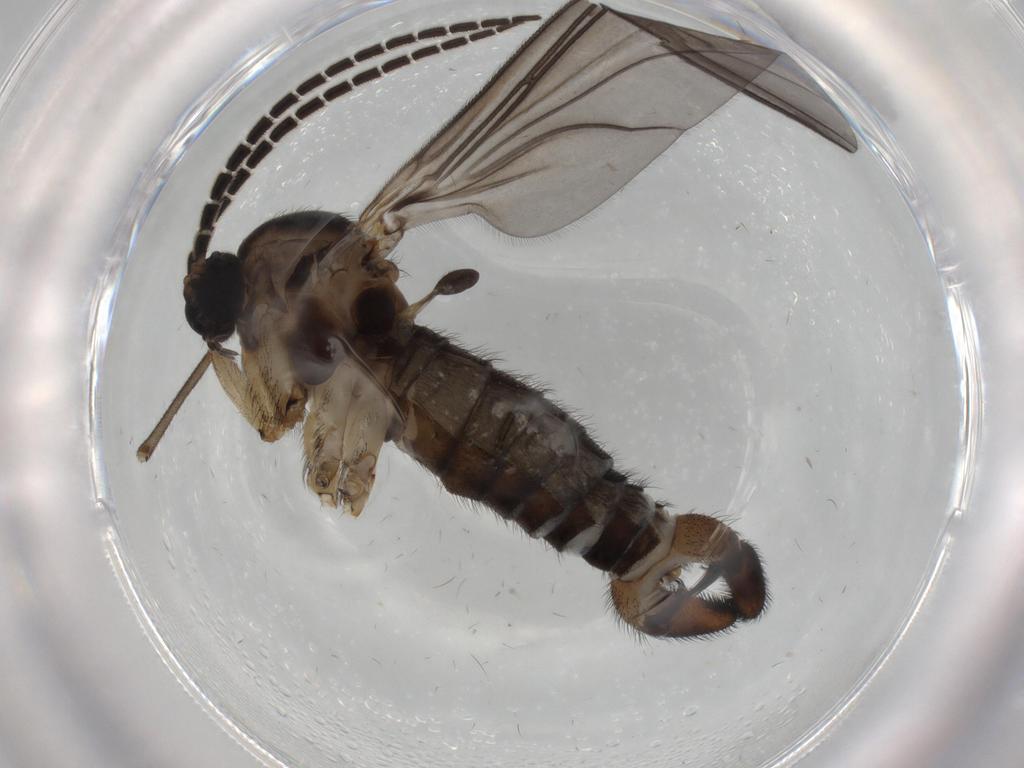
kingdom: Animalia
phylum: Arthropoda
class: Insecta
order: Diptera
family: Sciaridae
